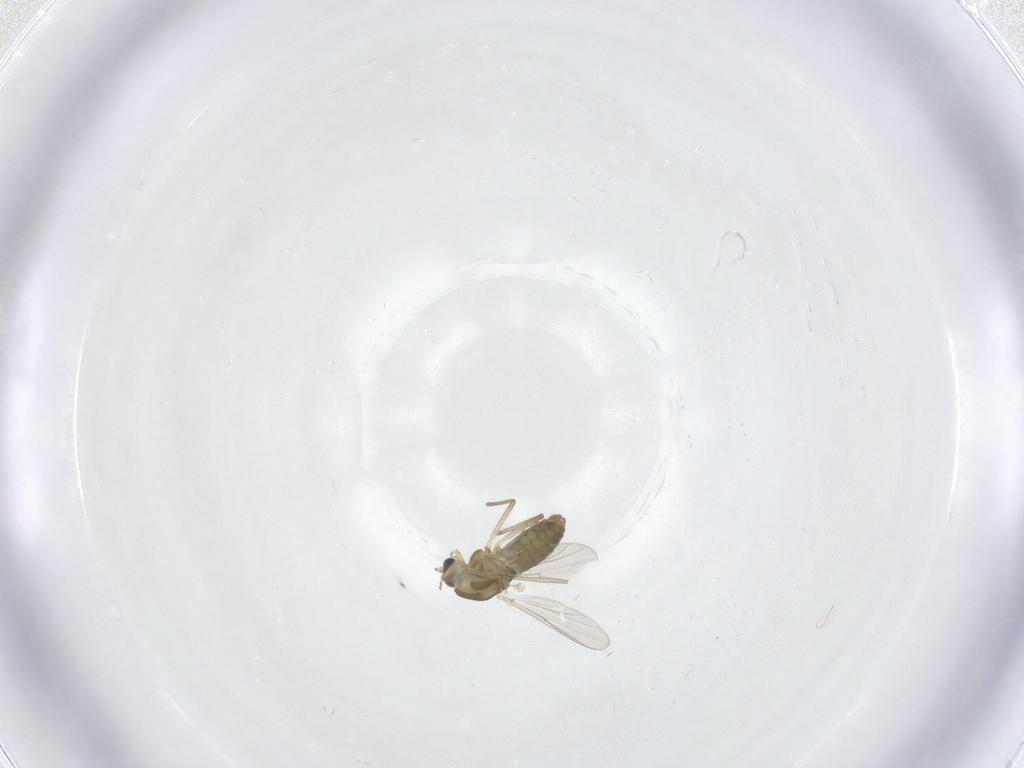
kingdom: Animalia
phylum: Arthropoda
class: Insecta
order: Diptera
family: Chironomidae
